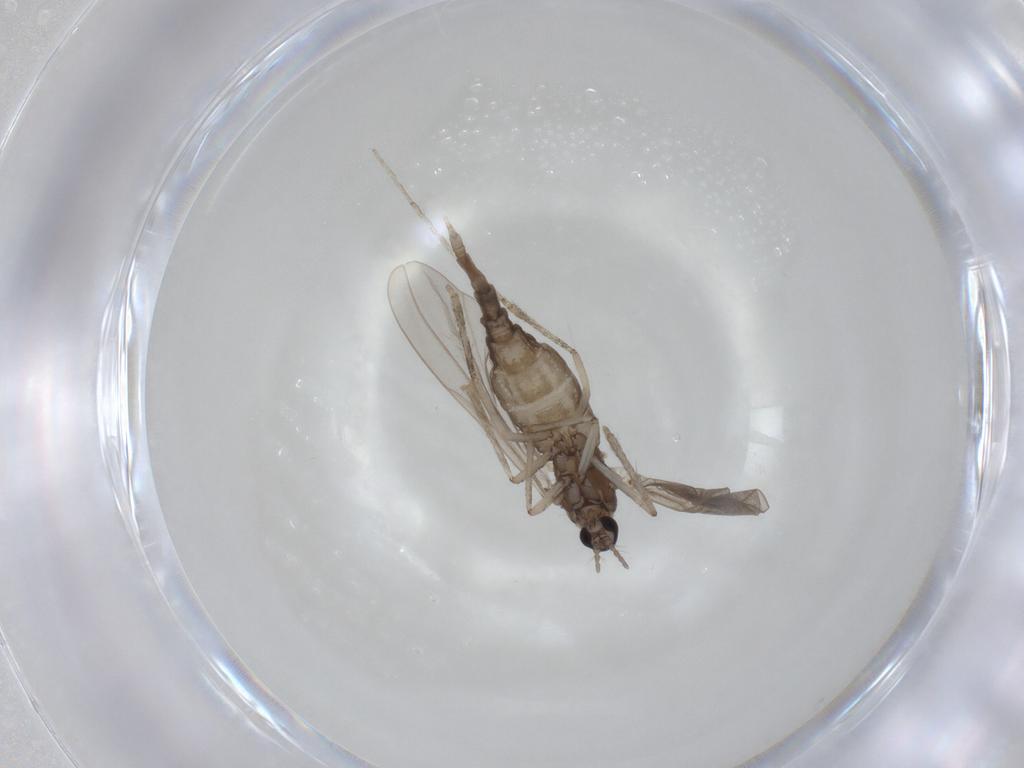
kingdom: Animalia
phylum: Arthropoda
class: Insecta
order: Diptera
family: Cecidomyiidae
